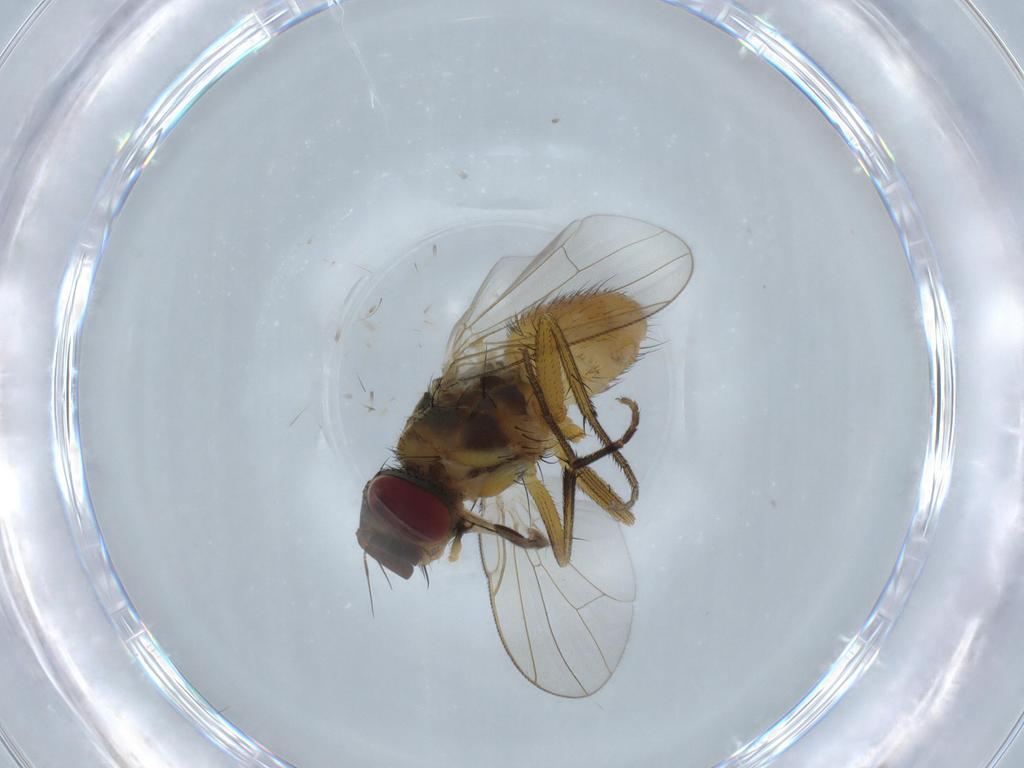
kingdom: Animalia
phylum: Arthropoda
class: Insecta
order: Diptera
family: Muscidae
